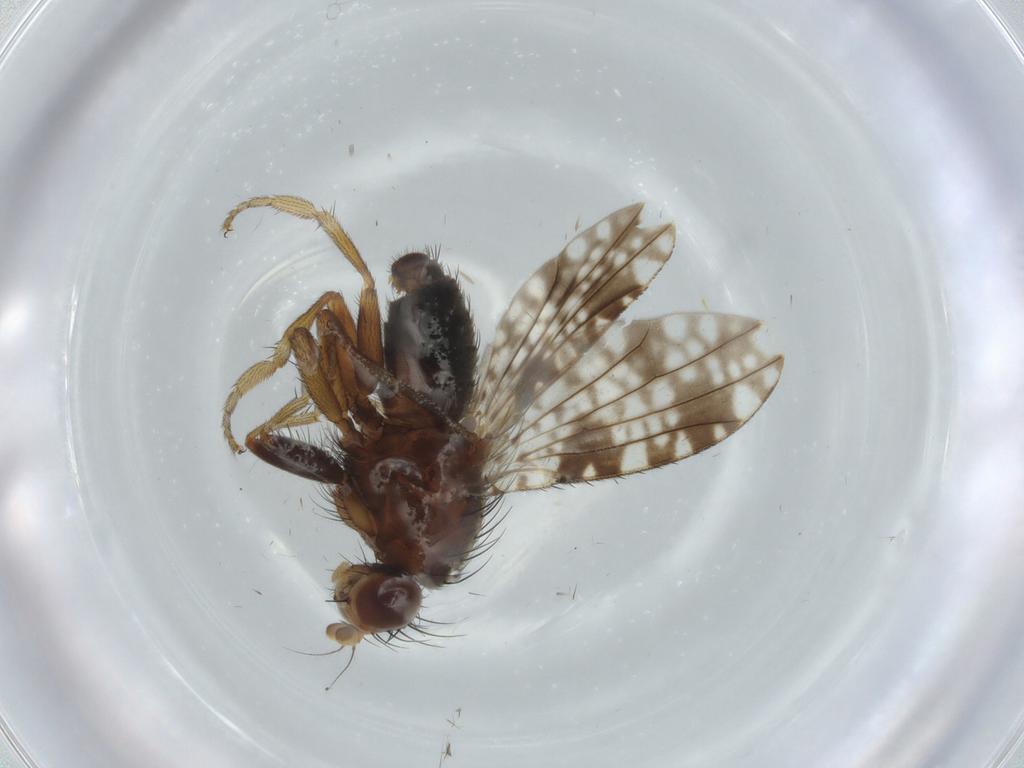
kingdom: Animalia
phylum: Arthropoda
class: Insecta
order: Diptera
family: Tephritidae
